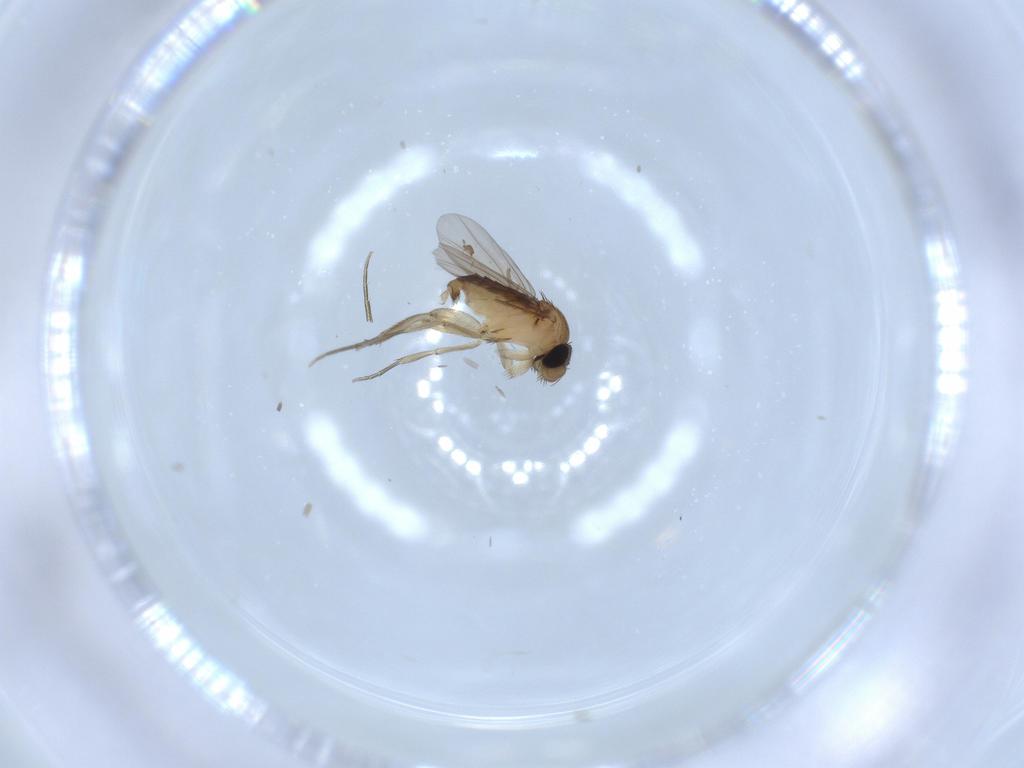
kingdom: Animalia
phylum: Arthropoda
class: Insecta
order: Diptera
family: Phoridae
